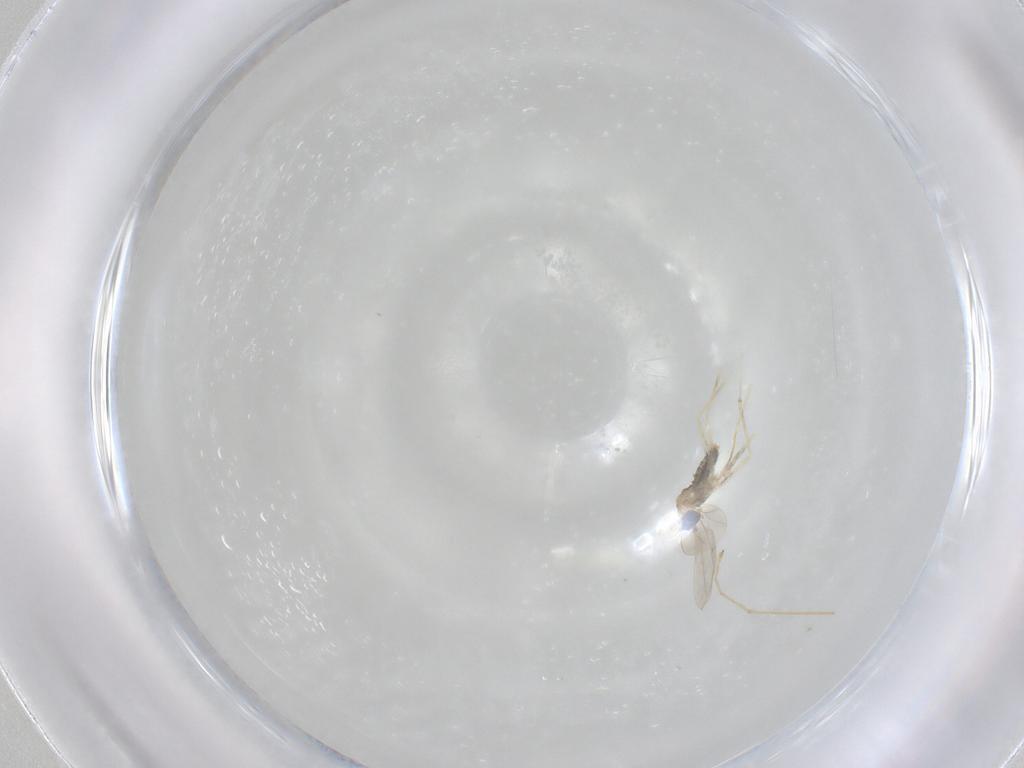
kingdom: Animalia
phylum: Arthropoda
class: Insecta
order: Diptera
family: Cecidomyiidae
